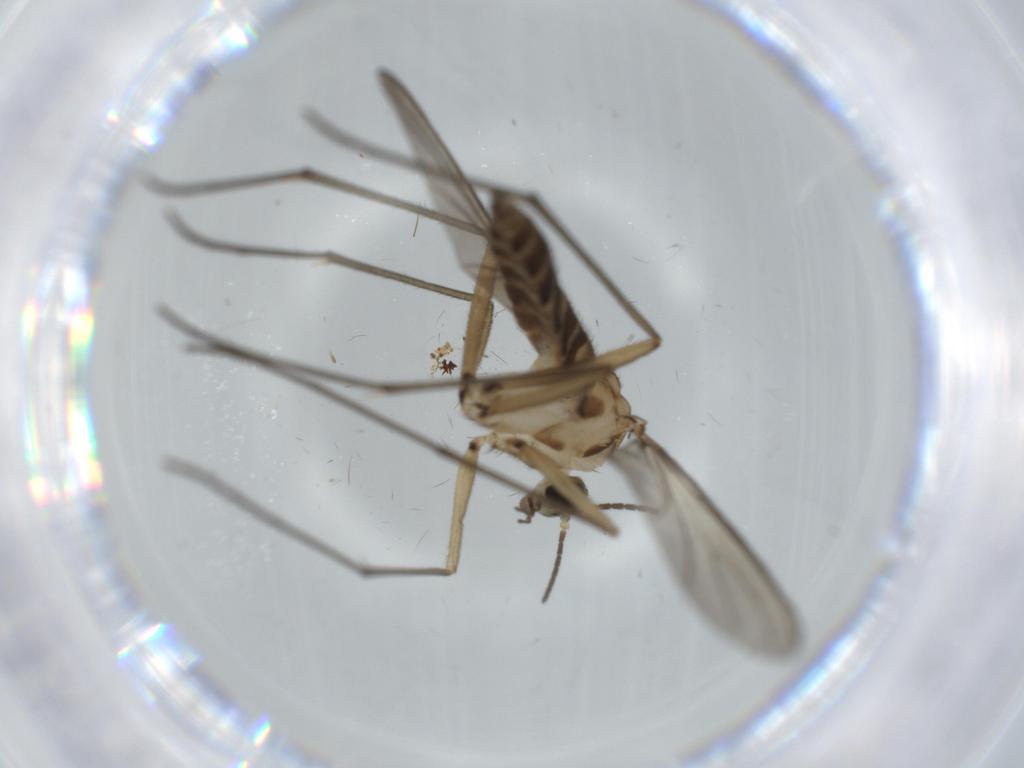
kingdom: Animalia
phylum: Arthropoda
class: Insecta
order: Diptera
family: Sciaridae
